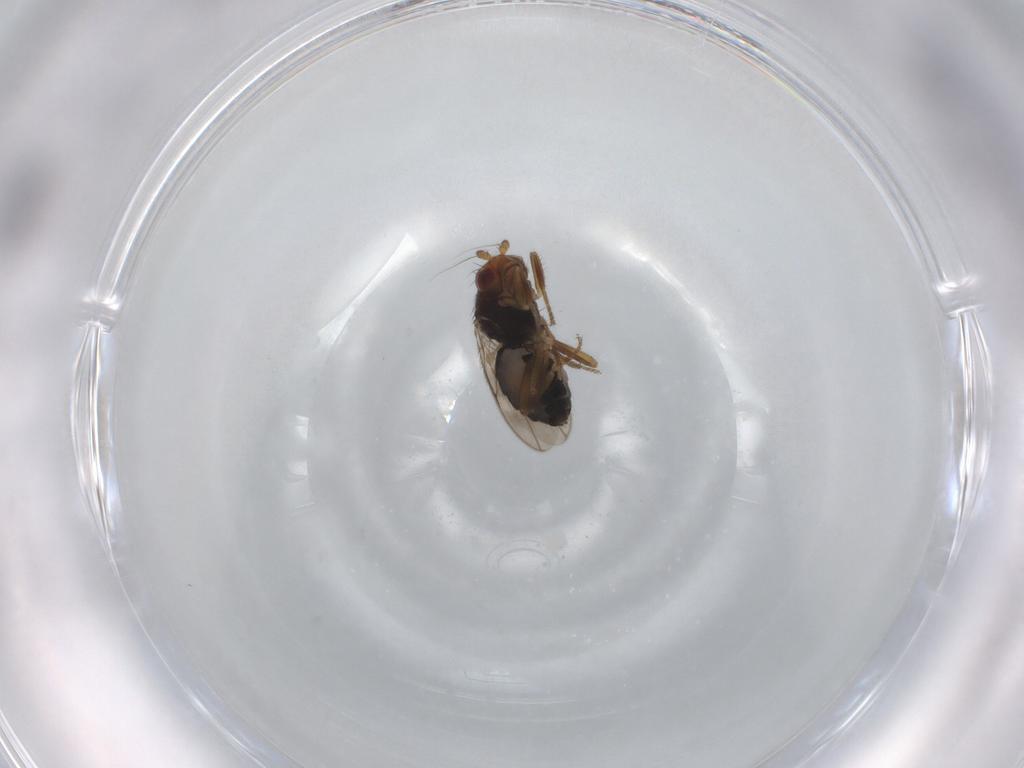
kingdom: Animalia
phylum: Arthropoda
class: Insecta
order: Diptera
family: Sphaeroceridae
